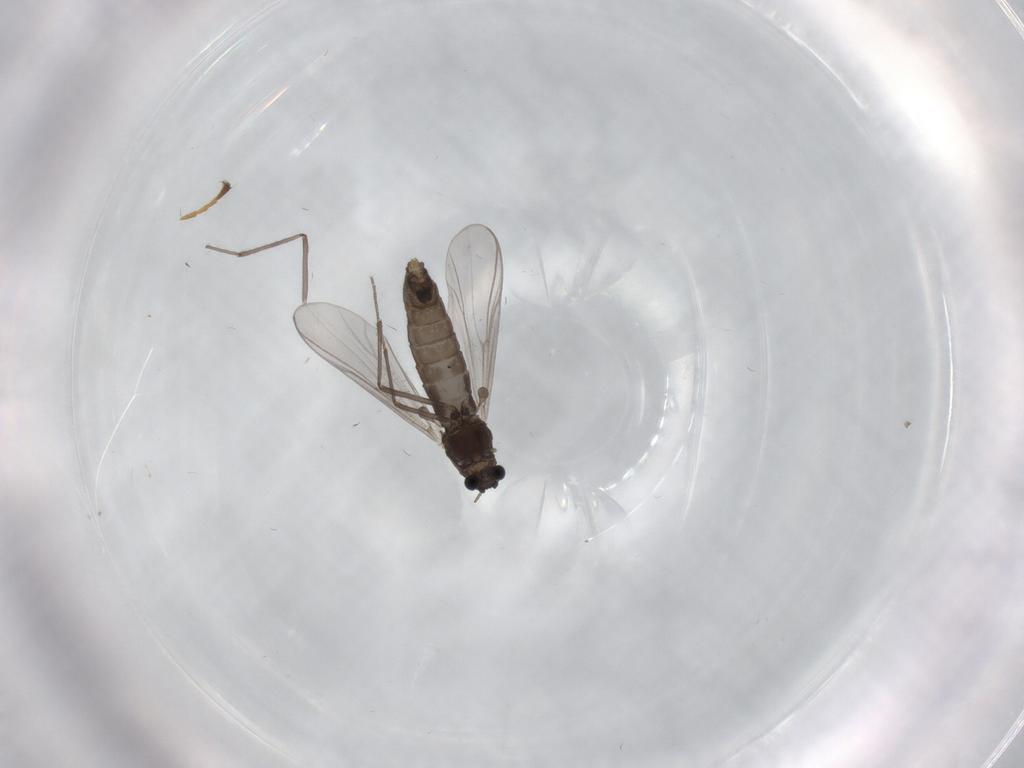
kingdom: Animalia
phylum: Arthropoda
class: Insecta
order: Diptera
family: Chironomidae
